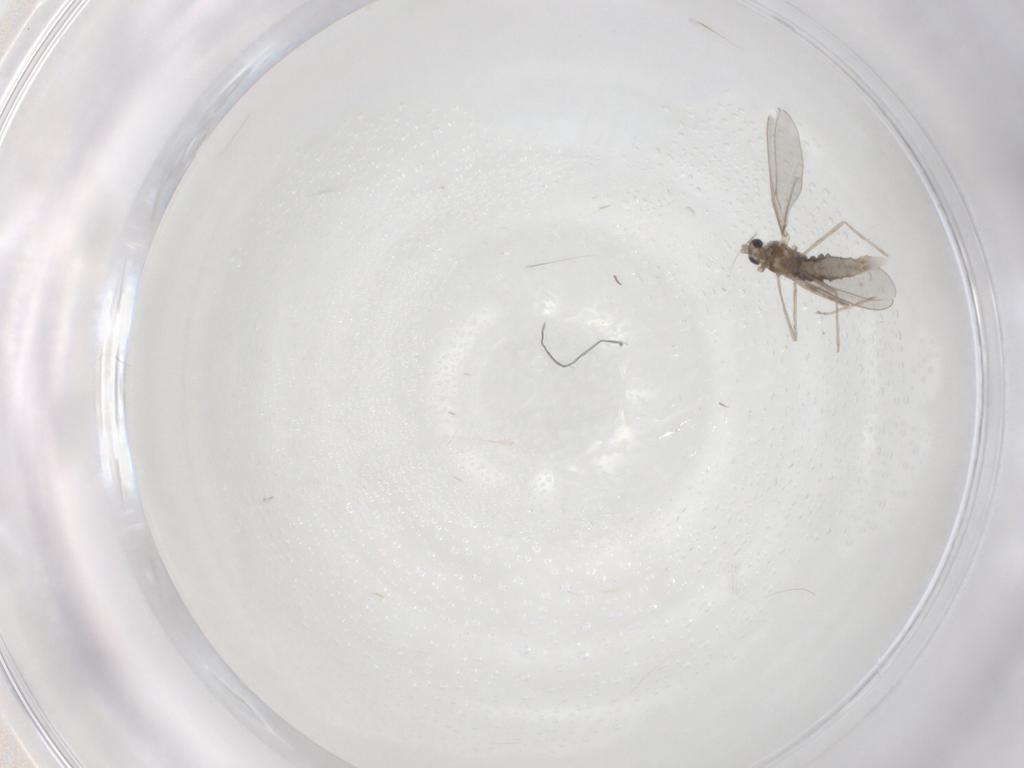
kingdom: Animalia
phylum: Arthropoda
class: Insecta
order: Diptera
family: Cecidomyiidae
